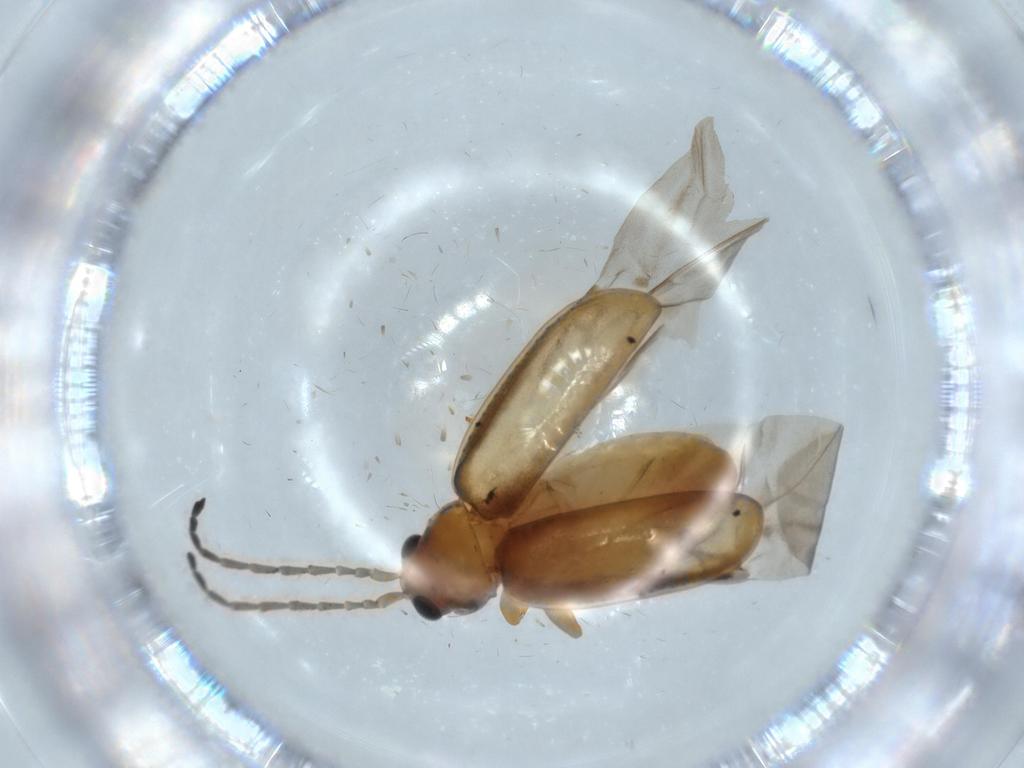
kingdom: Animalia
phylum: Arthropoda
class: Insecta
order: Coleoptera
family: Chrysomelidae
